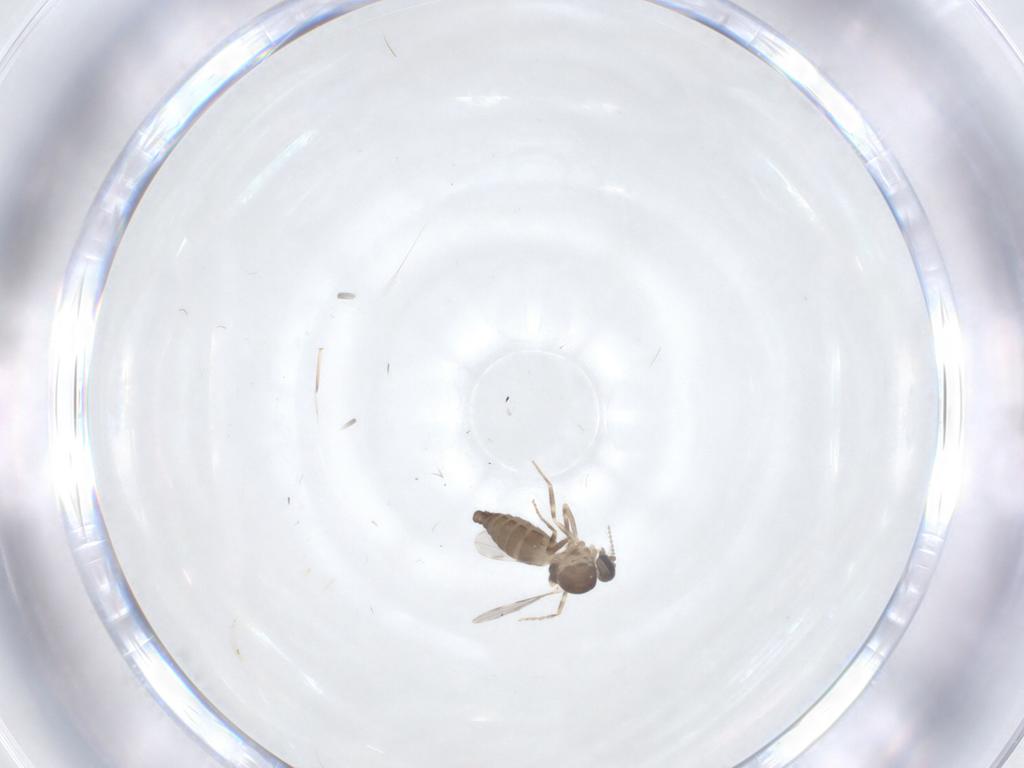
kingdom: Animalia
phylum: Arthropoda
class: Insecta
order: Diptera
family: Ceratopogonidae
